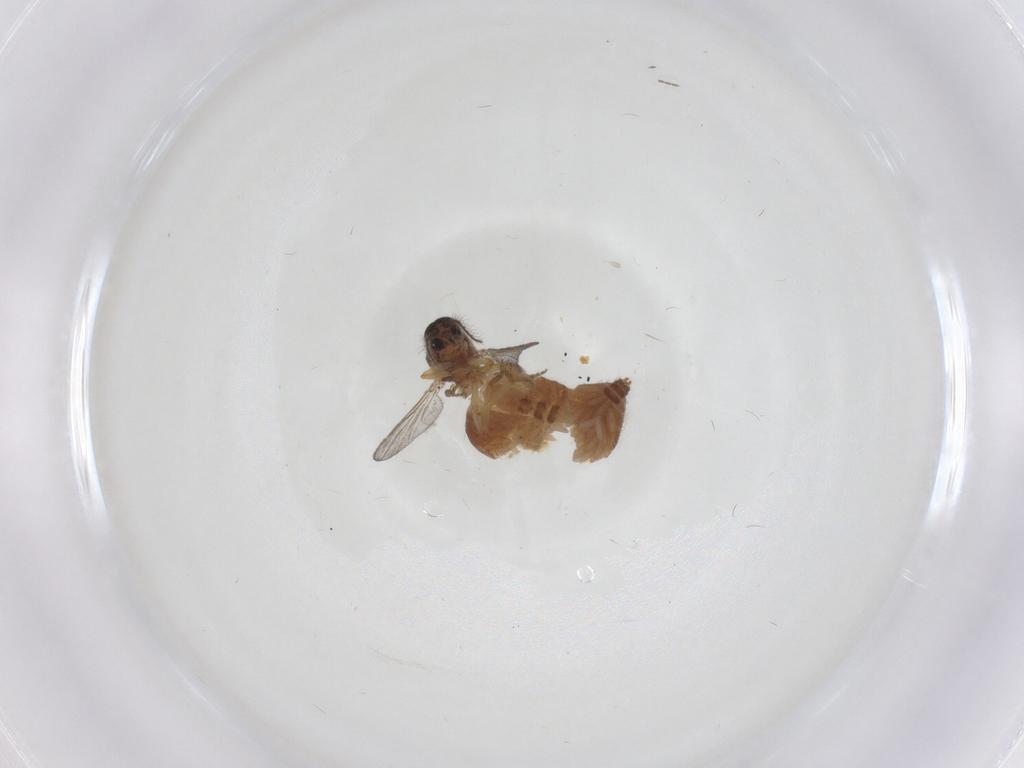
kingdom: Animalia
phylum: Arthropoda
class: Insecta
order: Diptera
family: Ceratopogonidae
